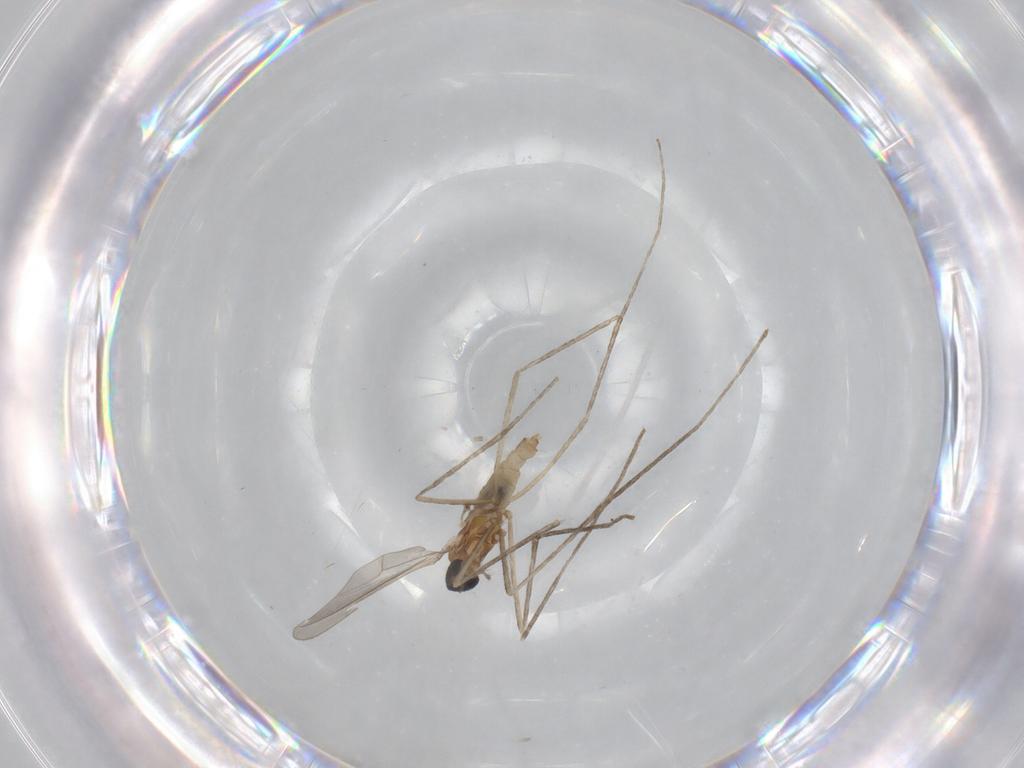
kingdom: Animalia
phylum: Arthropoda
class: Insecta
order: Diptera
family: Cecidomyiidae
